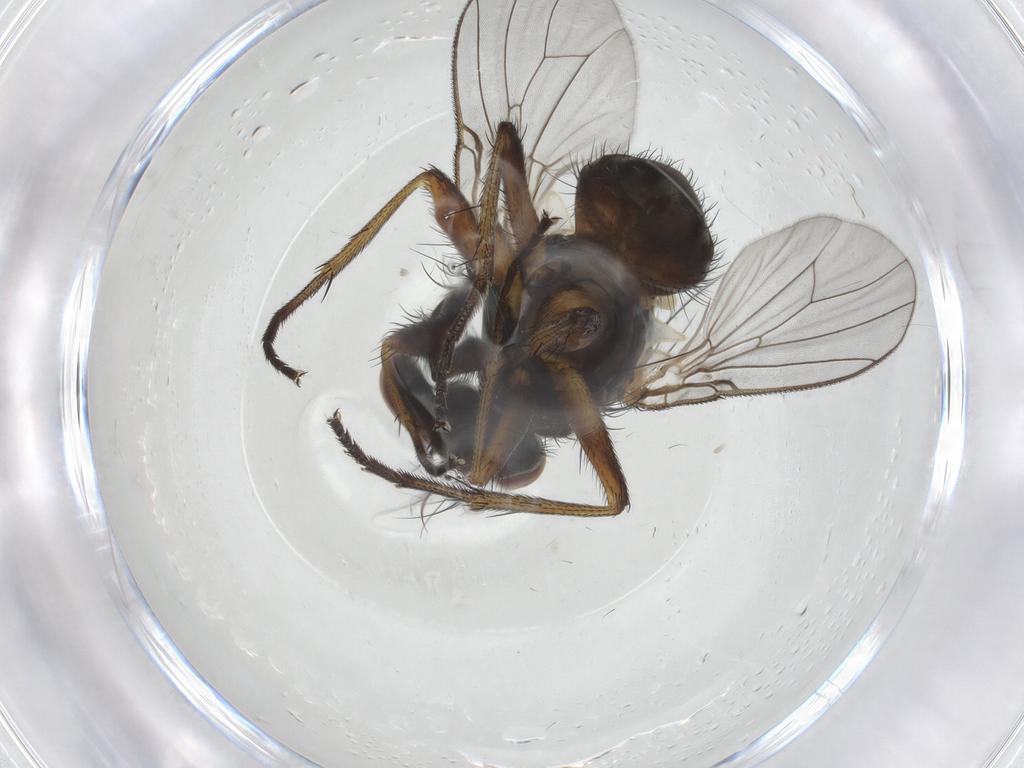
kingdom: Animalia
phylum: Arthropoda
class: Insecta
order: Diptera
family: Muscidae
